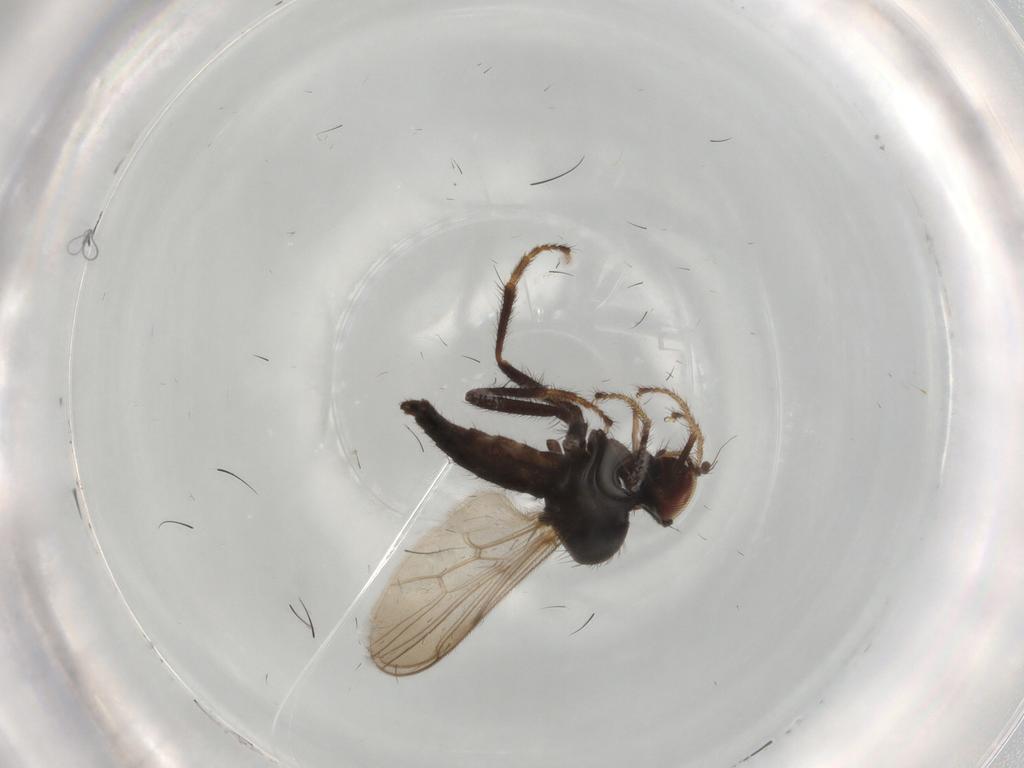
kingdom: Animalia
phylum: Arthropoda
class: Insecta
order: Diptera
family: Hybotidae
